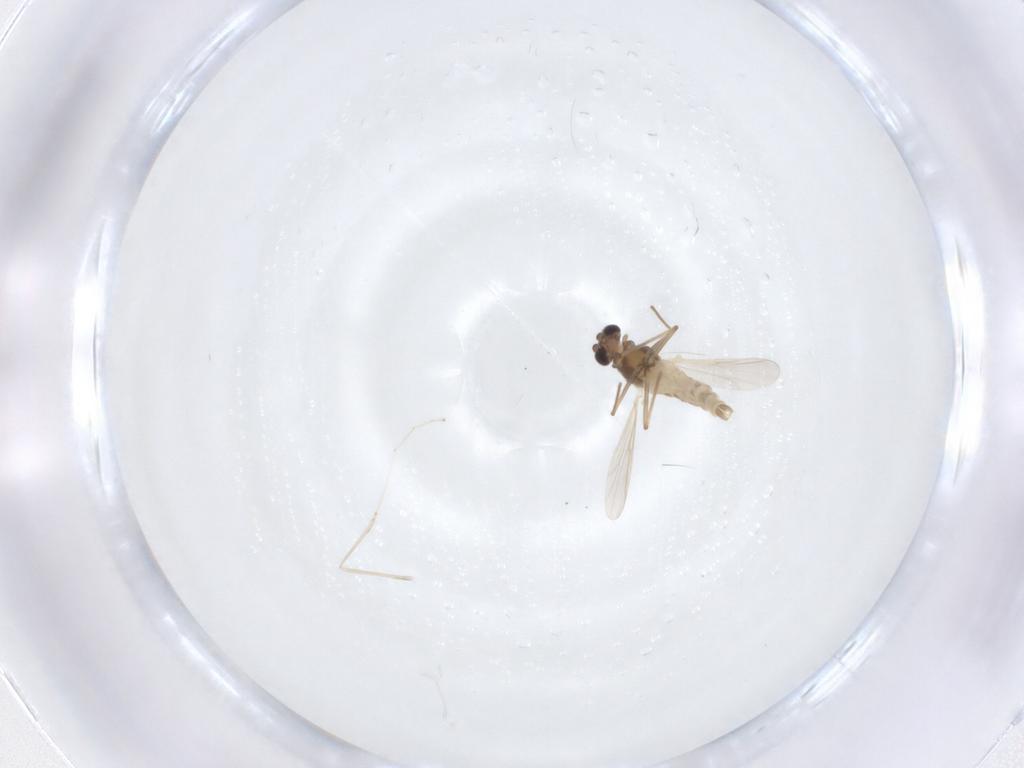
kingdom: Animalia
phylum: Arthropoda
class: Insecta
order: Diptera
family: Chironomidae
